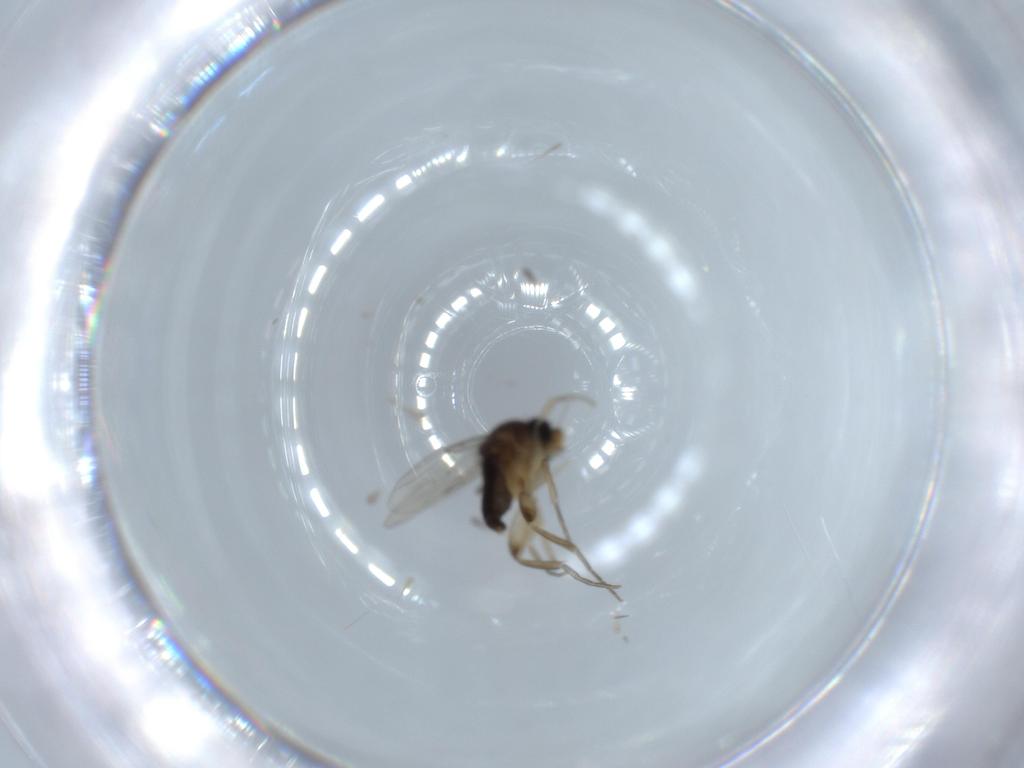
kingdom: Animalia
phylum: Arthropoda
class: Insecta
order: Diptera
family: Phoridae
